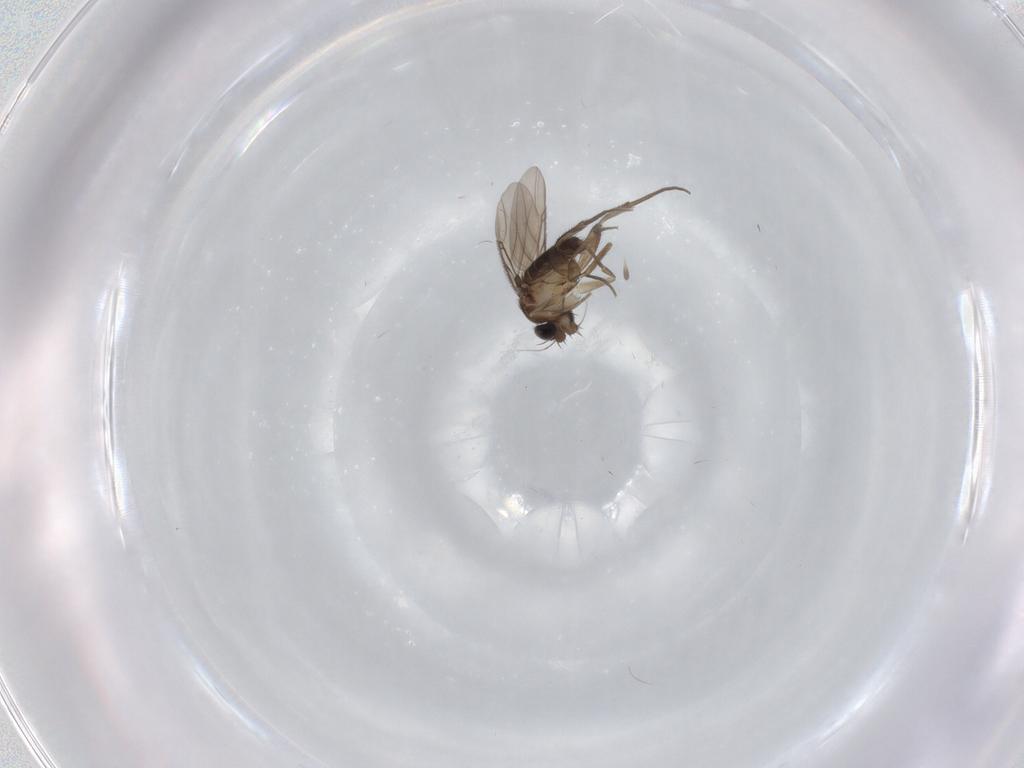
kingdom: Animalia
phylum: Arthropoda
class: Insecta
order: Diptera
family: Phoridae
